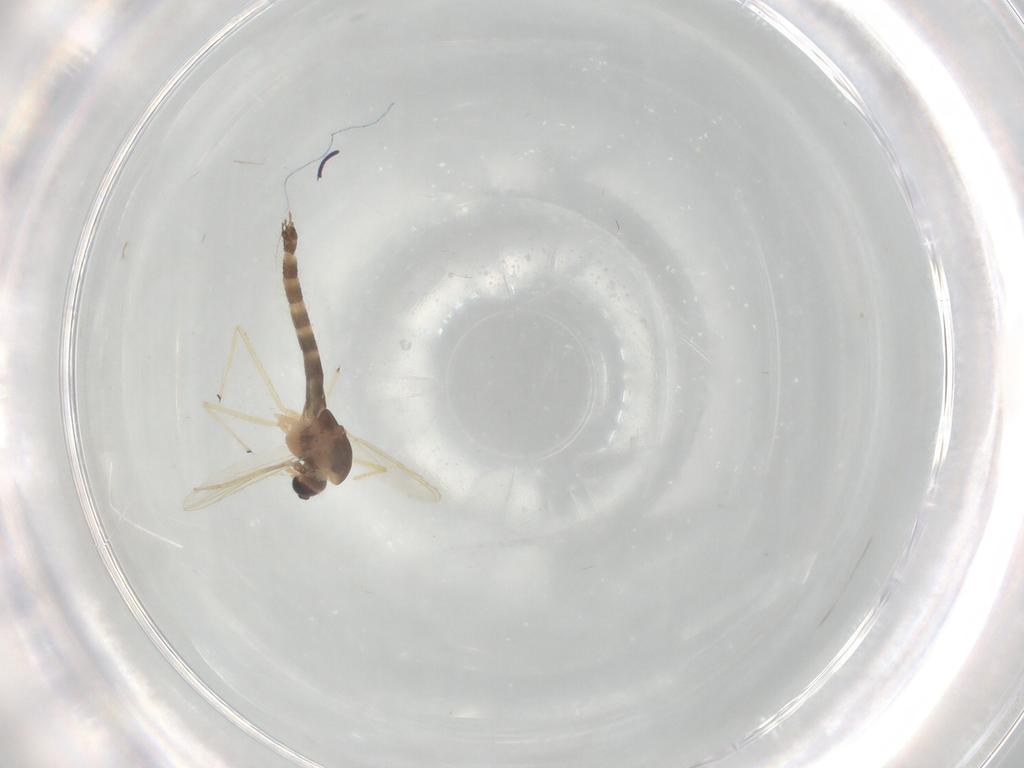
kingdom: Animalia
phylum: Arthropoda
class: Insecta
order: Diptera
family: Chironomidae
